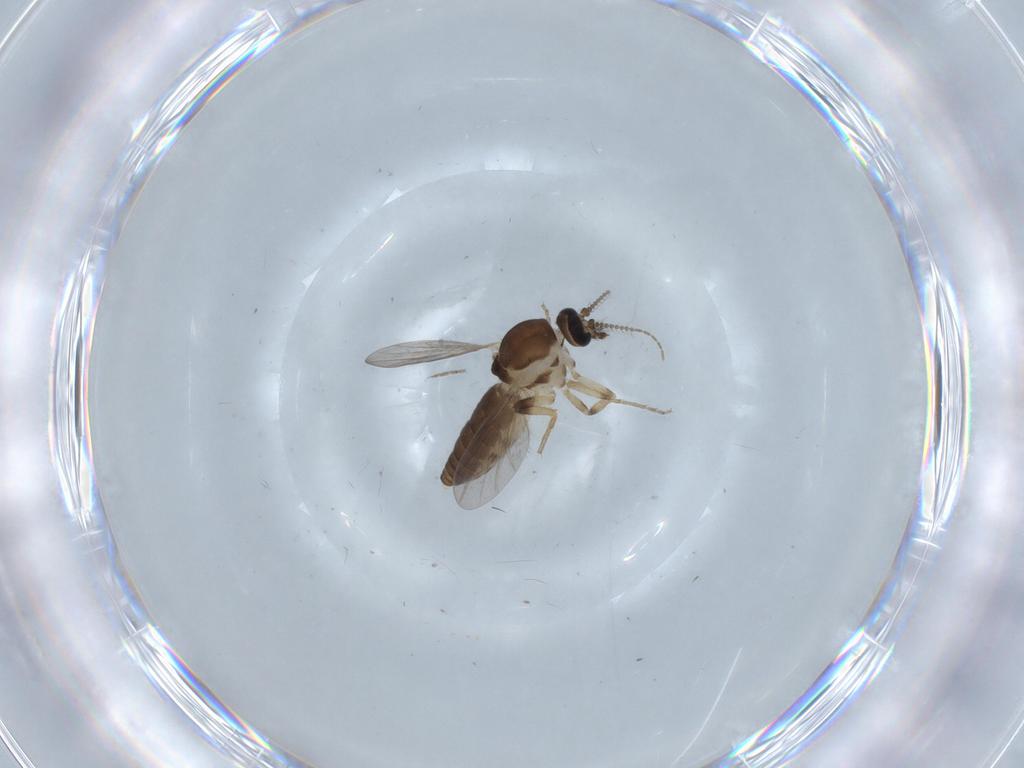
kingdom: Animalia
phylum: Arthropoda
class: Insecta
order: Diptera
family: Ceratopogonidae
